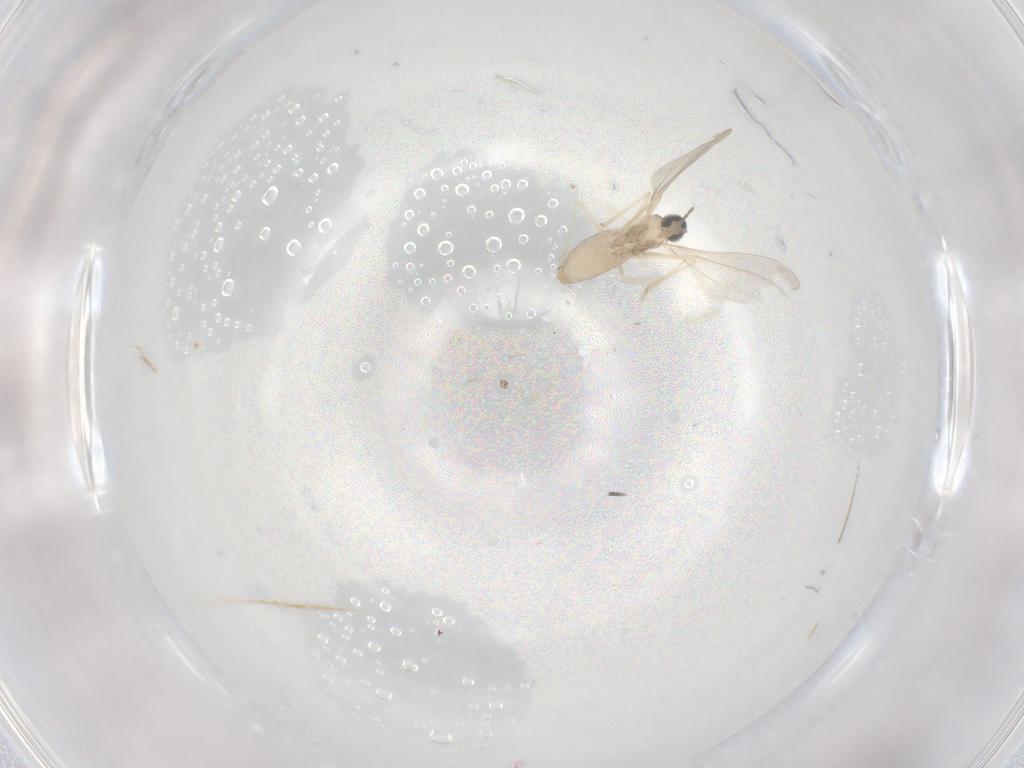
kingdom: Animalia
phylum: Arthropoda
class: Insecta
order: Diptera
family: Cecidomyiidae
